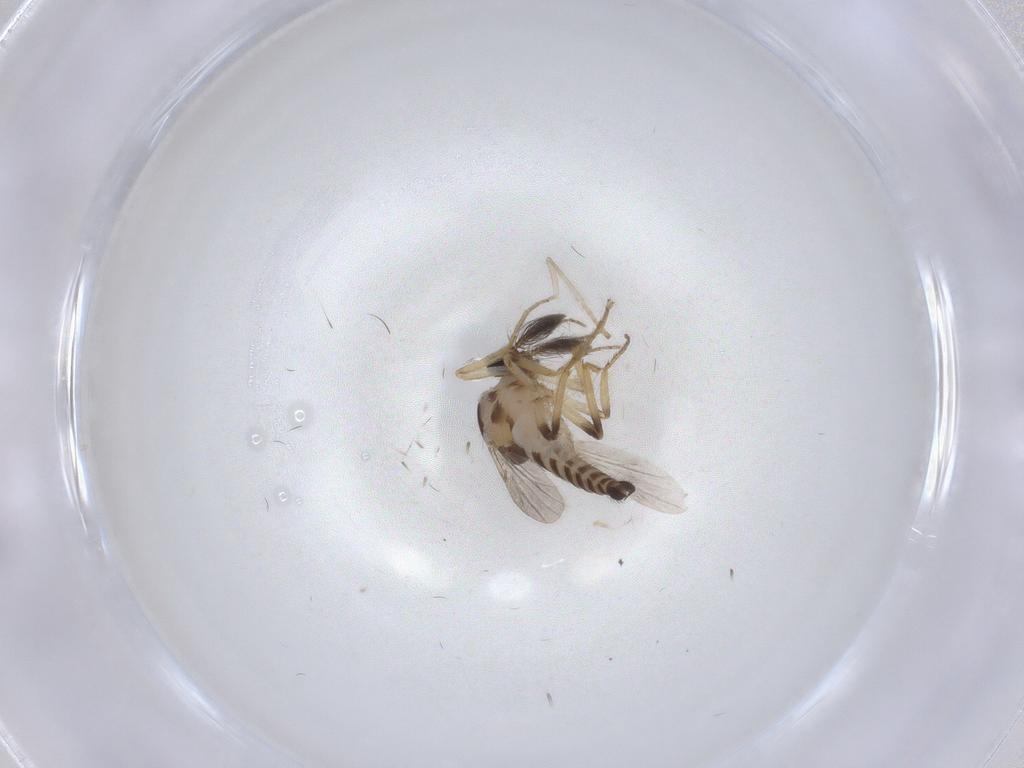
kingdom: Animalia
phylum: Arthropoda
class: Insecta
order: Diptera
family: Ceratopogonidae
